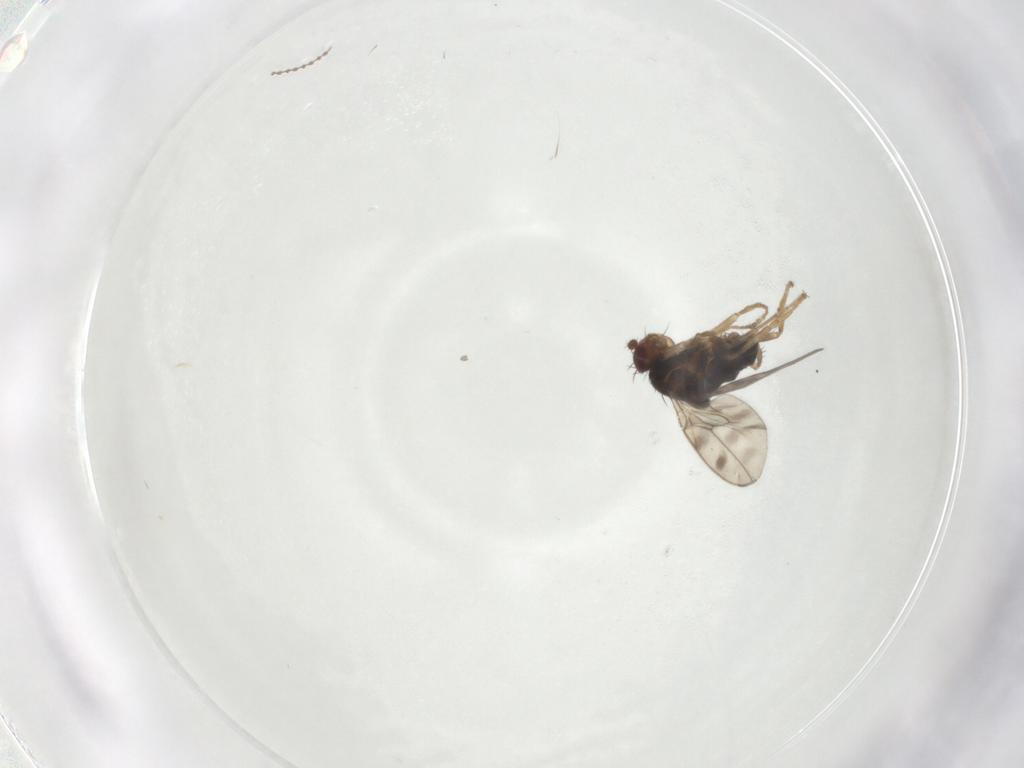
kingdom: Animalia
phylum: Arthropoda
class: Insecta
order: Diptera
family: Sphaeroceridae
